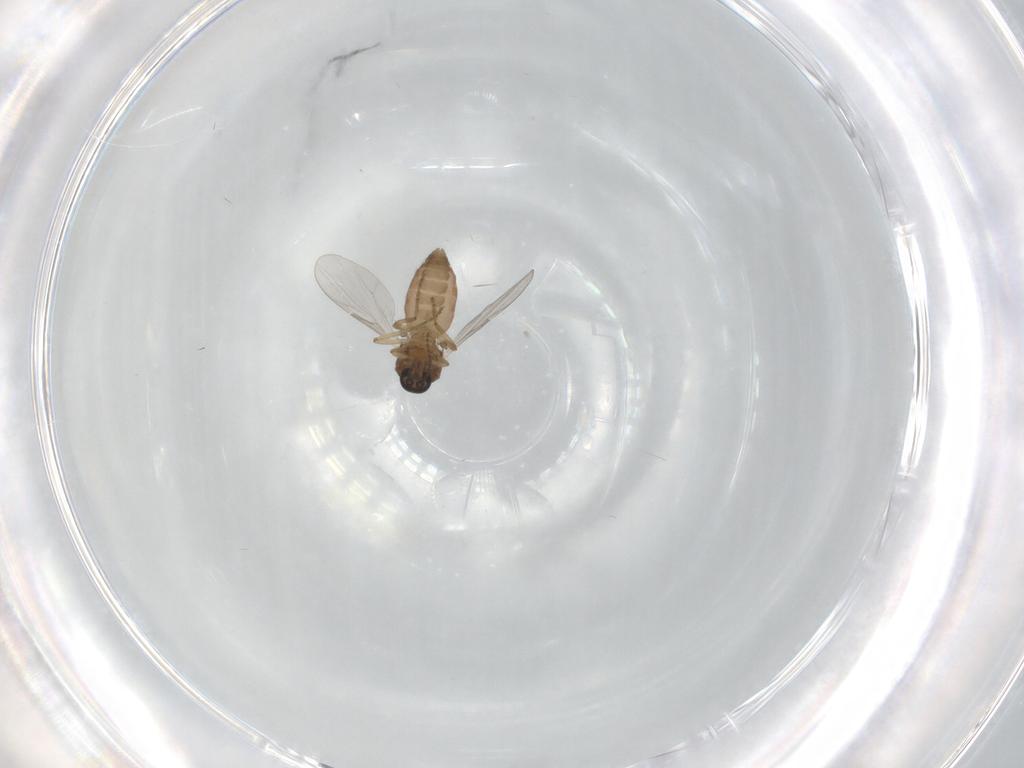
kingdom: Animalia
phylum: Arthropoda
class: Insecta
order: Diptera
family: Ceratopogonidae
